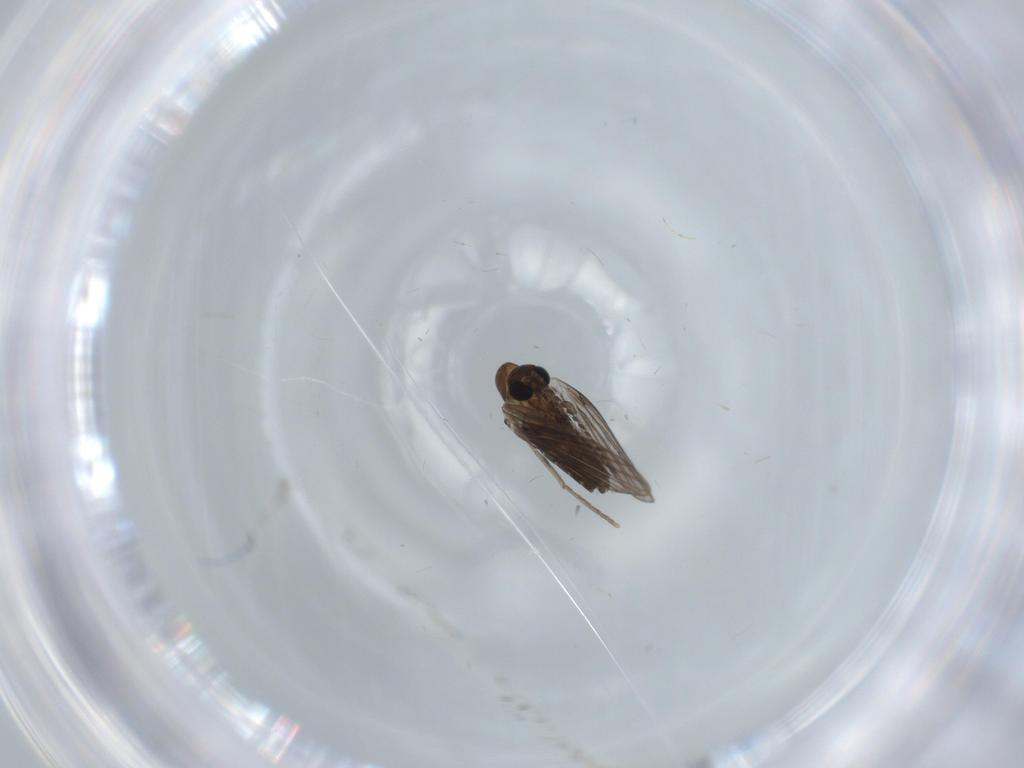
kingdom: Animalia
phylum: Arthropoda
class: Insecta
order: Diptera
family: Psychodidae
